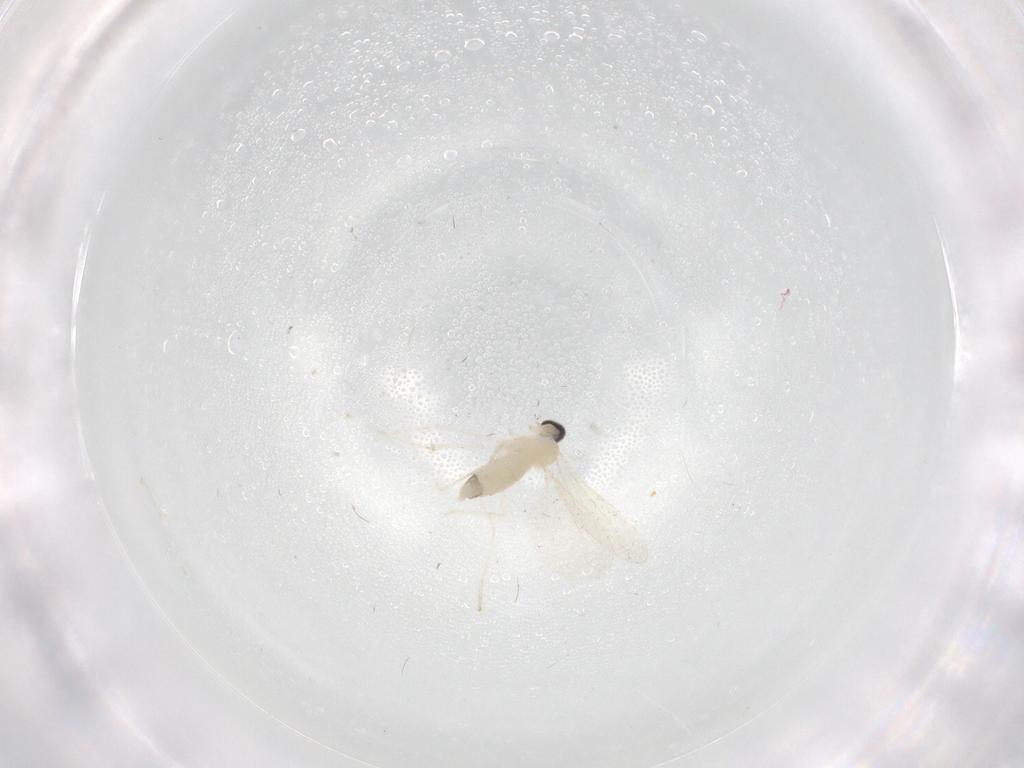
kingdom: Animalia
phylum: Arthropoda
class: Insecta
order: Diptera
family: Cecidomyiidae
